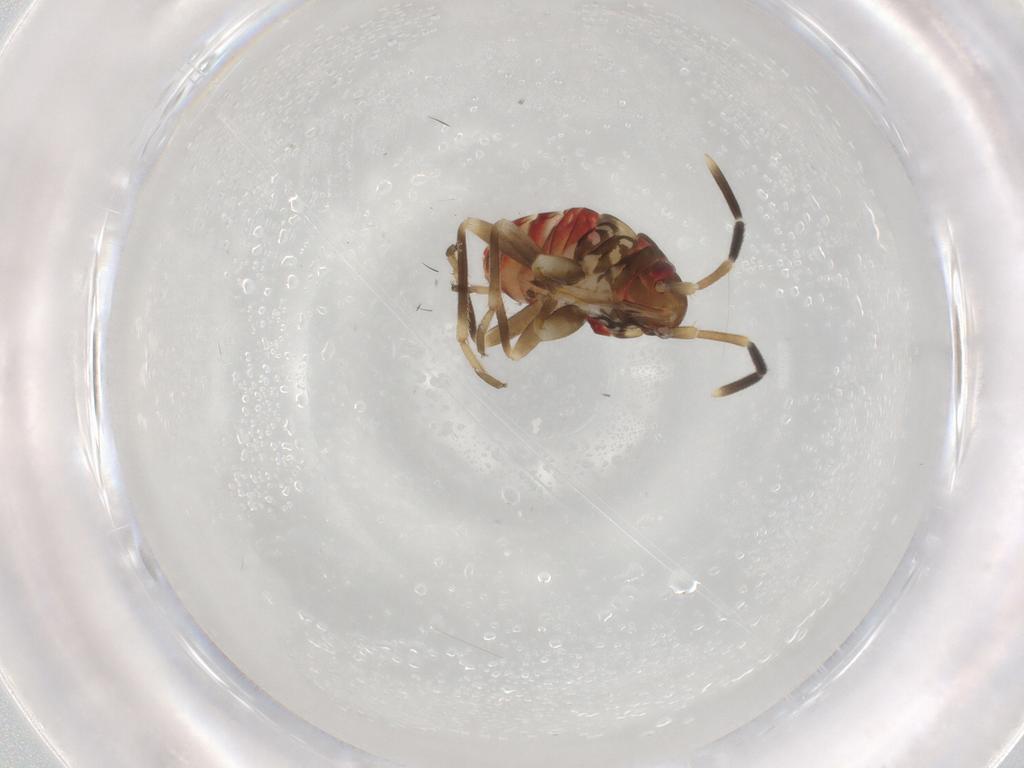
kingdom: Animalia
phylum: Arthropoda
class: Insecta
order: Hemiptera
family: Rhyparochromidae
